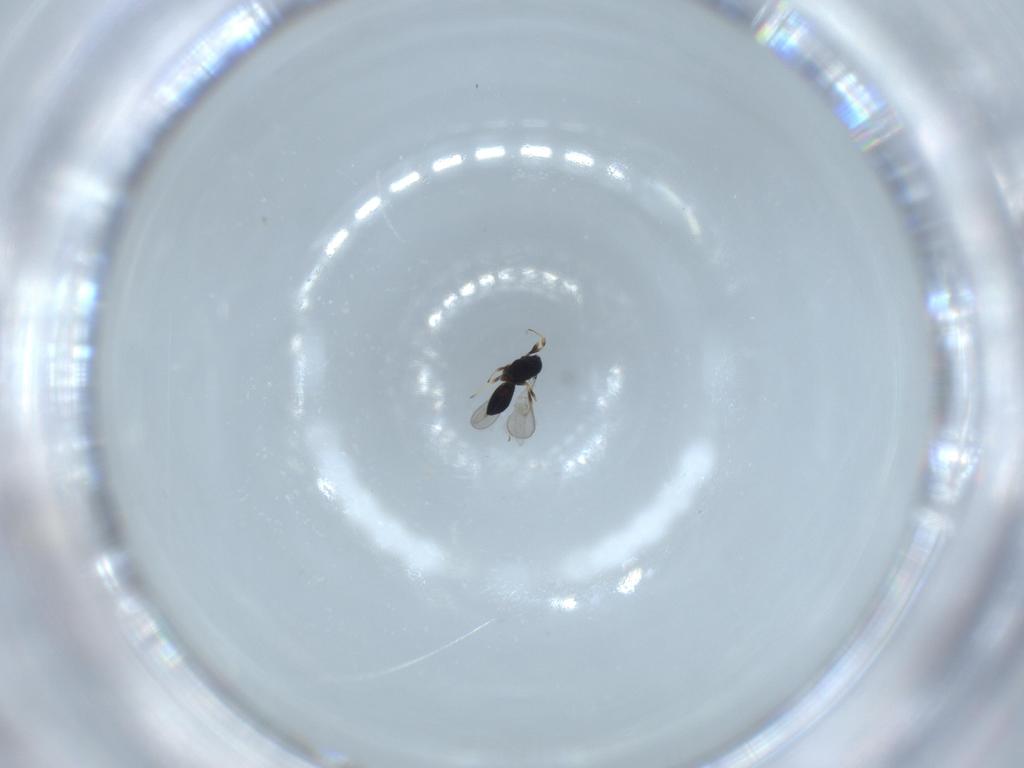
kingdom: Animalia
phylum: Arthropoda
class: Insecta
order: Hymenoptera
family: Scelionidae
